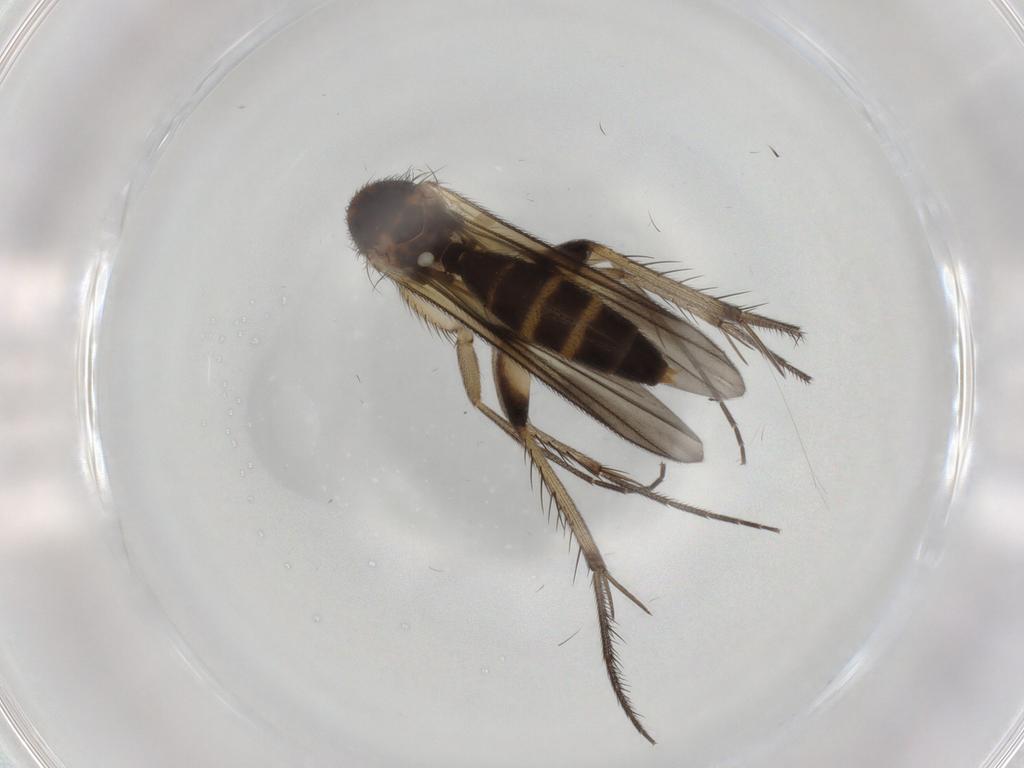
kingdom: Animalia
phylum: Arthropoda
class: Insecta
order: Diptera
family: Mycetophilidae
